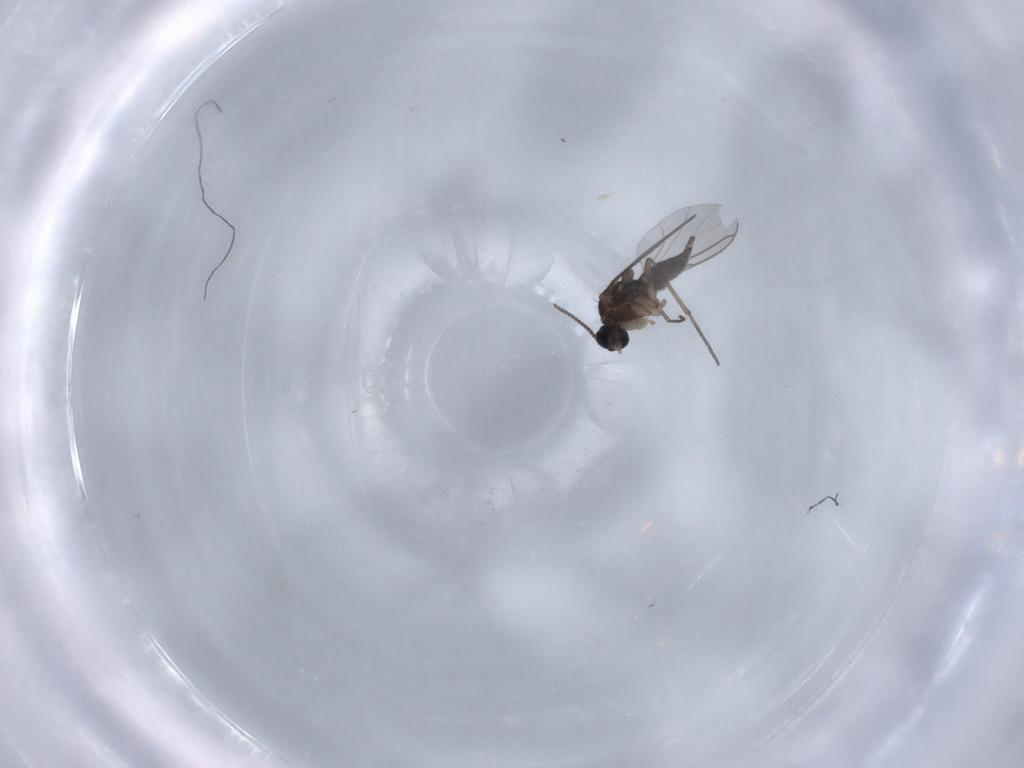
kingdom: Animalia
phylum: Arthropoda
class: Insecta
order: Diptera
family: Sciaridae
